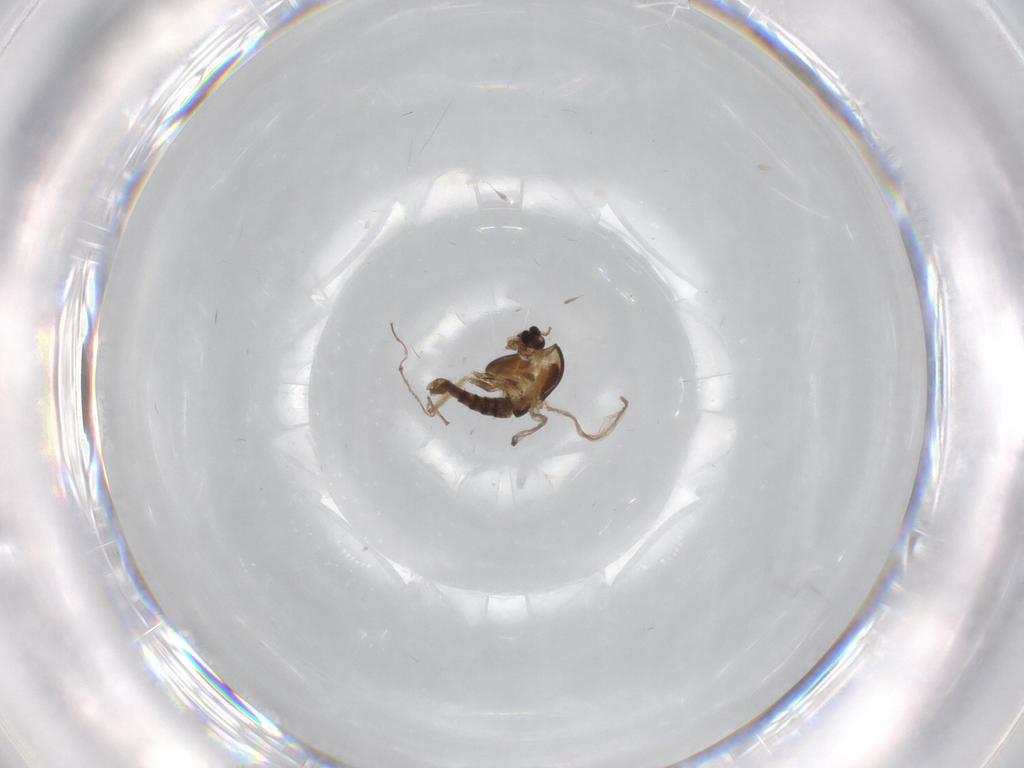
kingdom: Animalia
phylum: Arthropoda
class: Insecta
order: Diptera
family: Chironomidae
